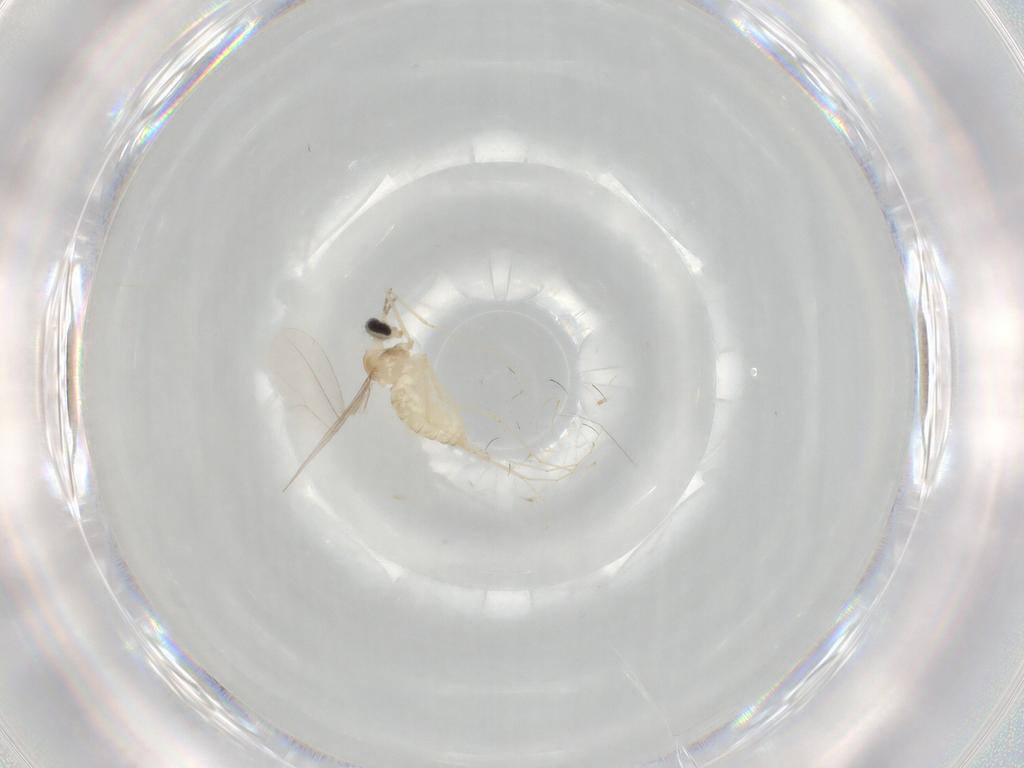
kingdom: Animalia
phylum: Arthropoda
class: Insecta
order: Diptera
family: Cecidomyiidae
